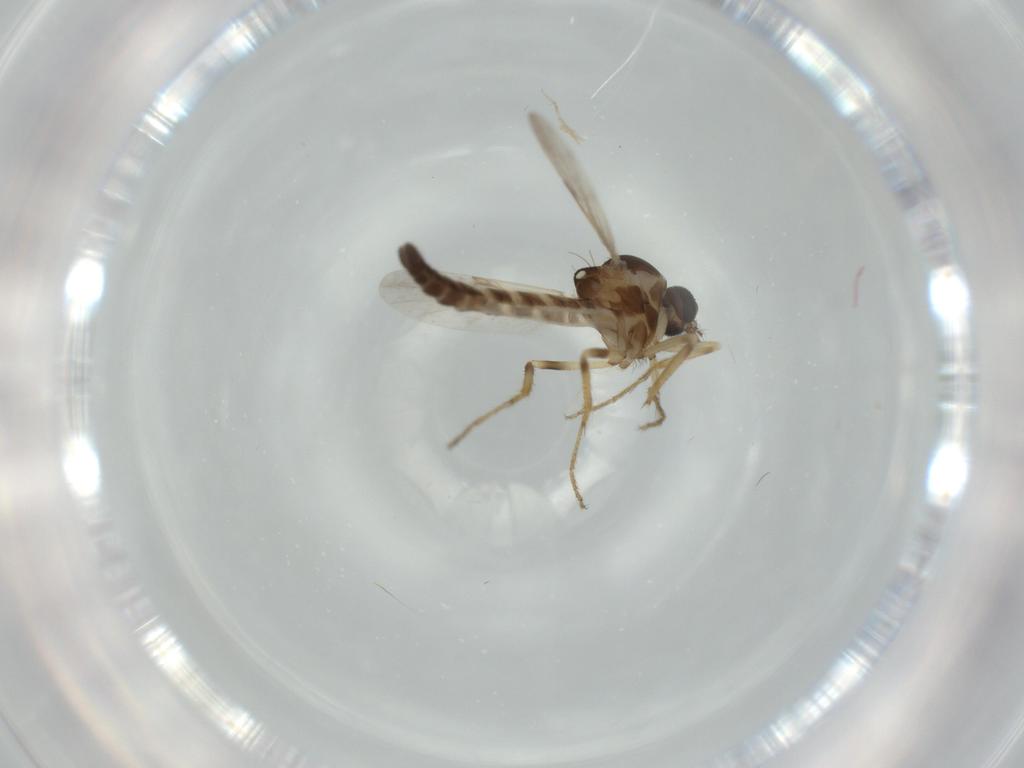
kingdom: Animalia
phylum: Arthropoda
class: Insecta
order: Diptera
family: Ceratopogonidae
